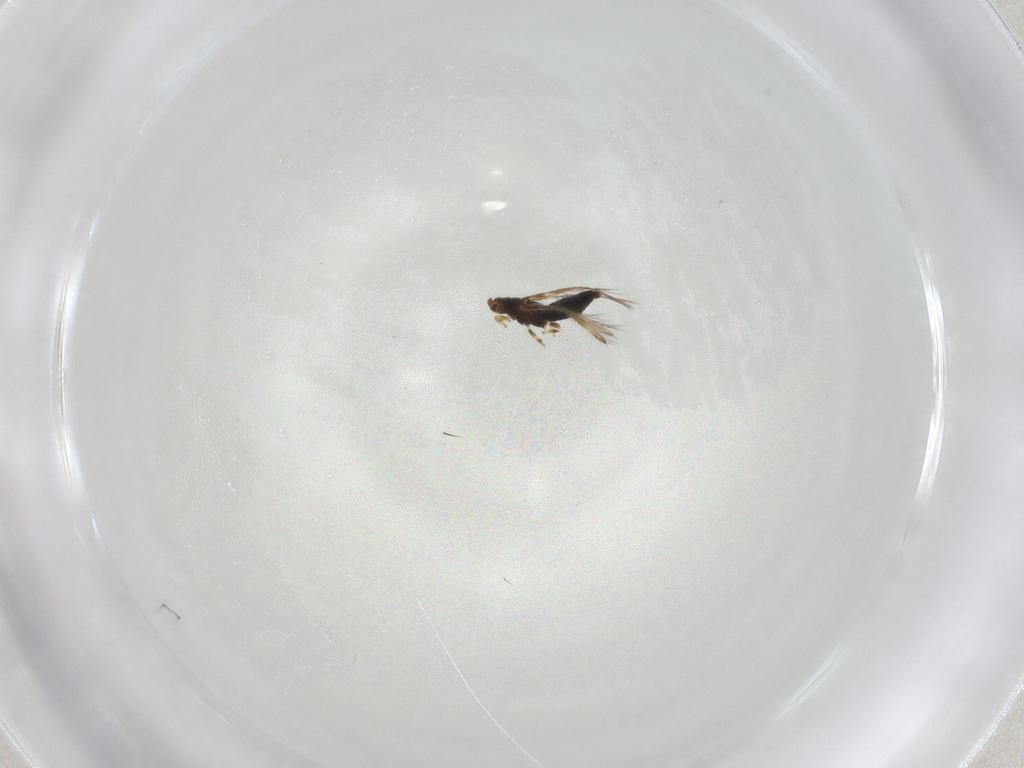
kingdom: Animalia
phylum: Arthropoda
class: Insecta
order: Thysanoptera
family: Thripidae
